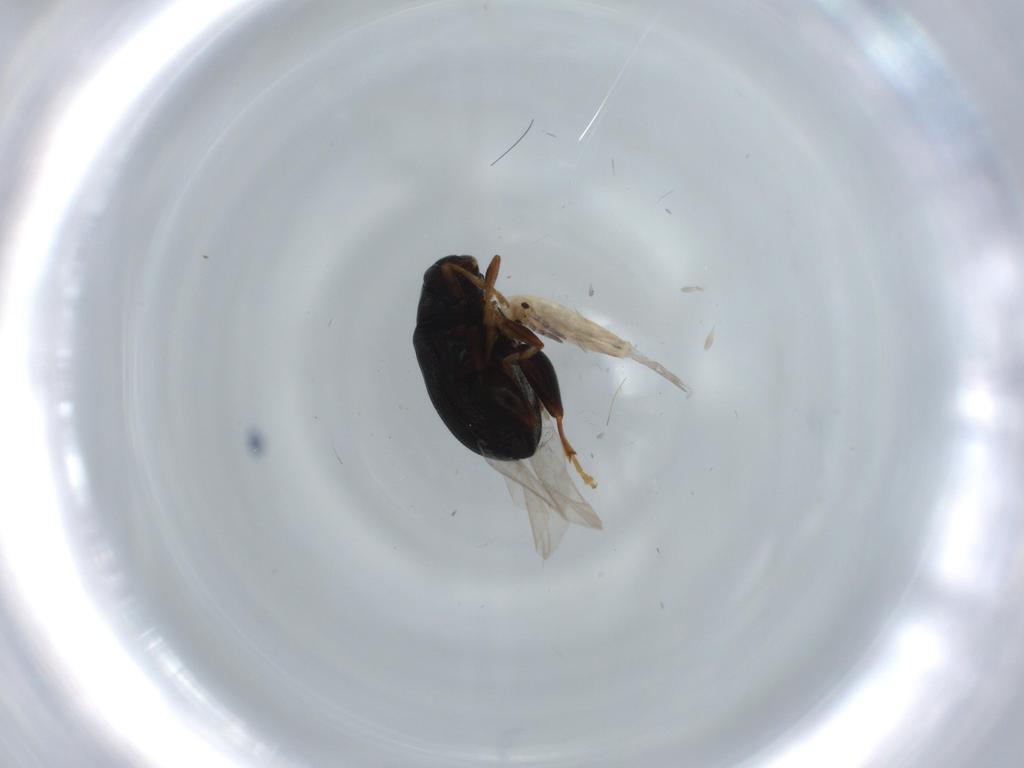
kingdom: Animalia
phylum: Arthropoda
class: Insecta
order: Coleoptera
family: Chrysomelidae
